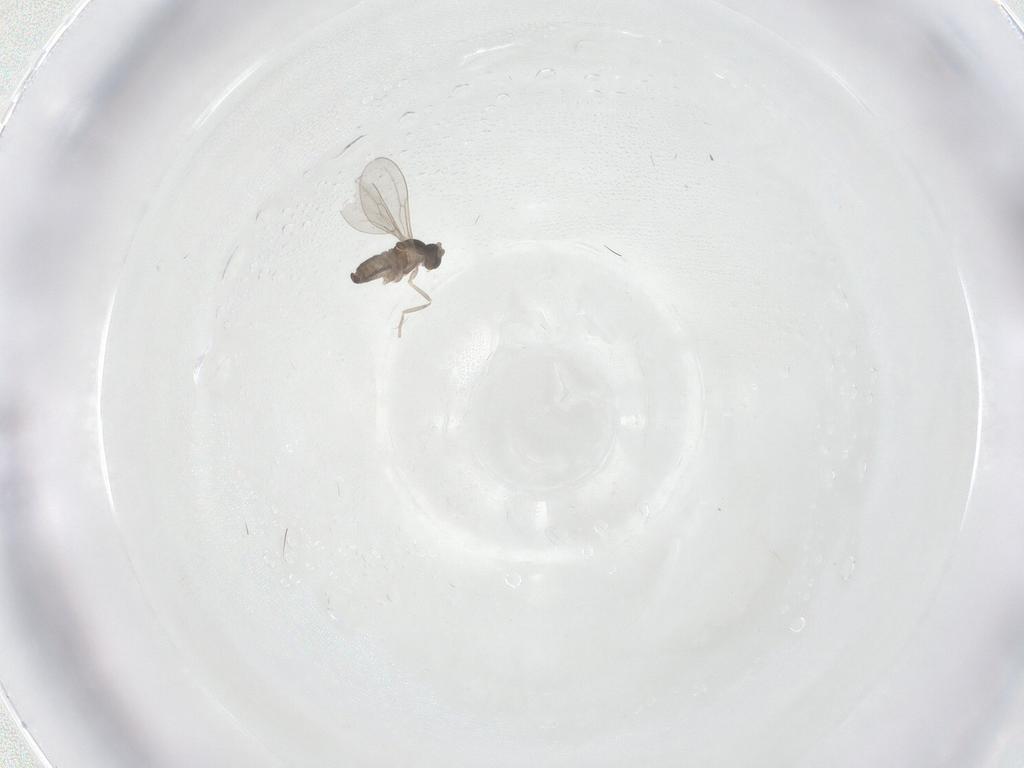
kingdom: Animalia
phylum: Arthropoda
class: Insecta
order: Diptera
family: Cecidomyiidae
